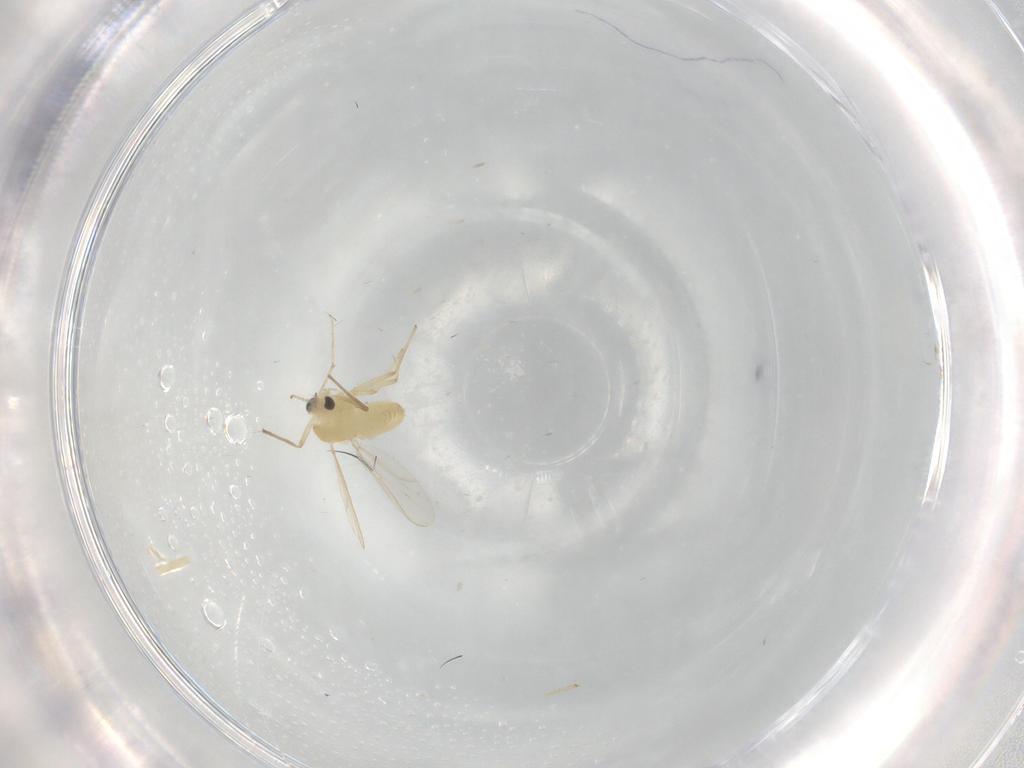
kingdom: Animalia
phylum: Arthropoda
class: Insecta
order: Diptera
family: Chironomidae
